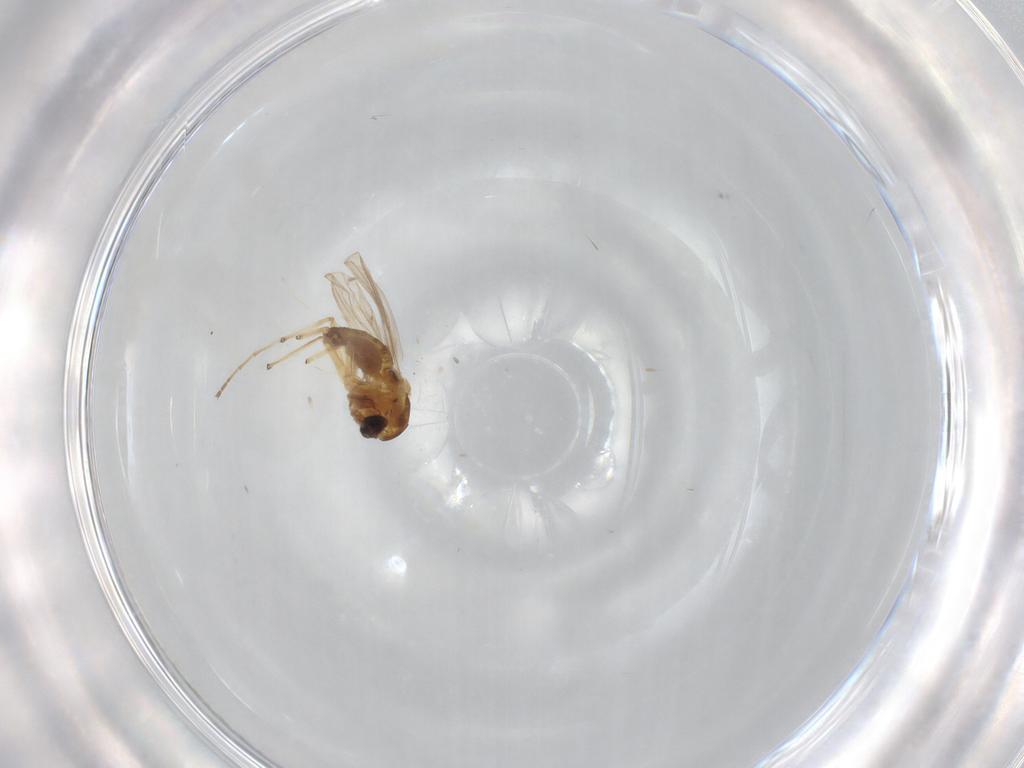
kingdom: Animalia
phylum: Arthropoda
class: Insecta
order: Diptera
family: Chironomidae
